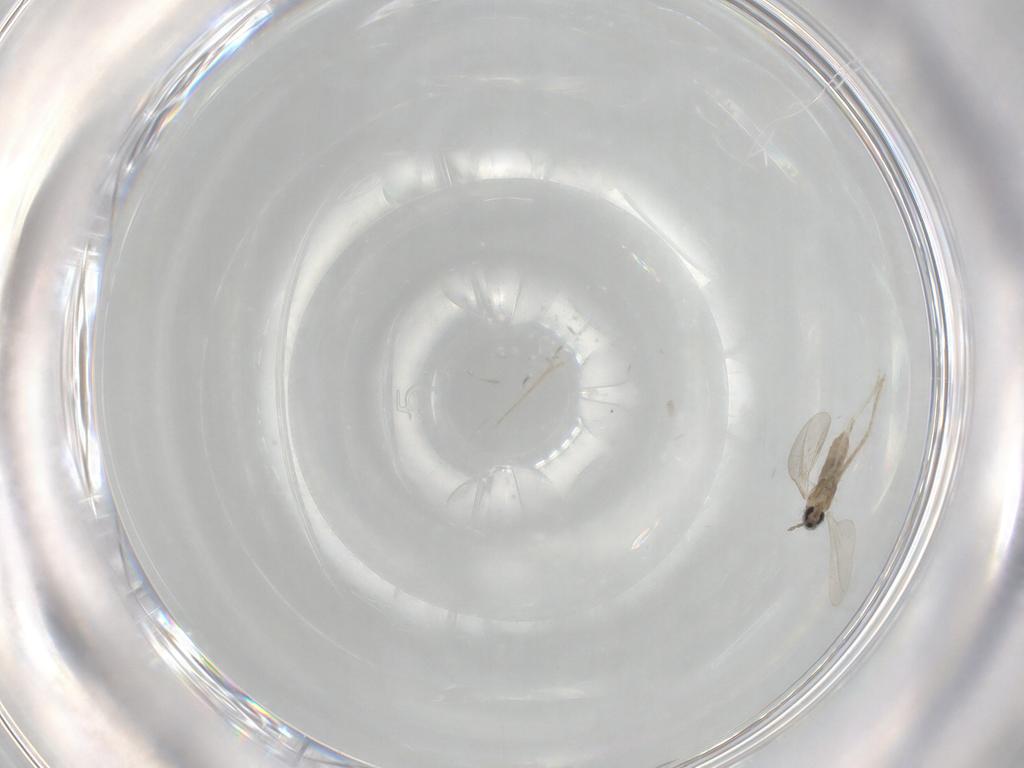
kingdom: Animalia
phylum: Arthropoda
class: Insecta
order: Diptera
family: Cecidomyiidae
